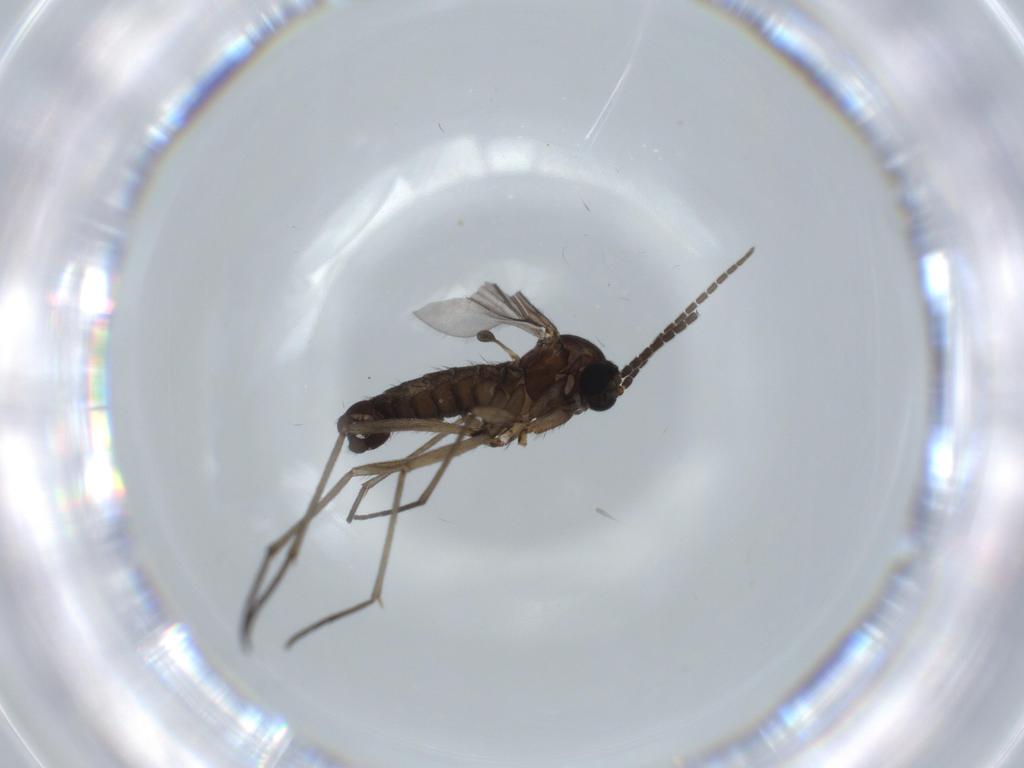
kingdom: Animalia
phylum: Arthropoda
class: Insecta
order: Diptera
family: Sciaridae
